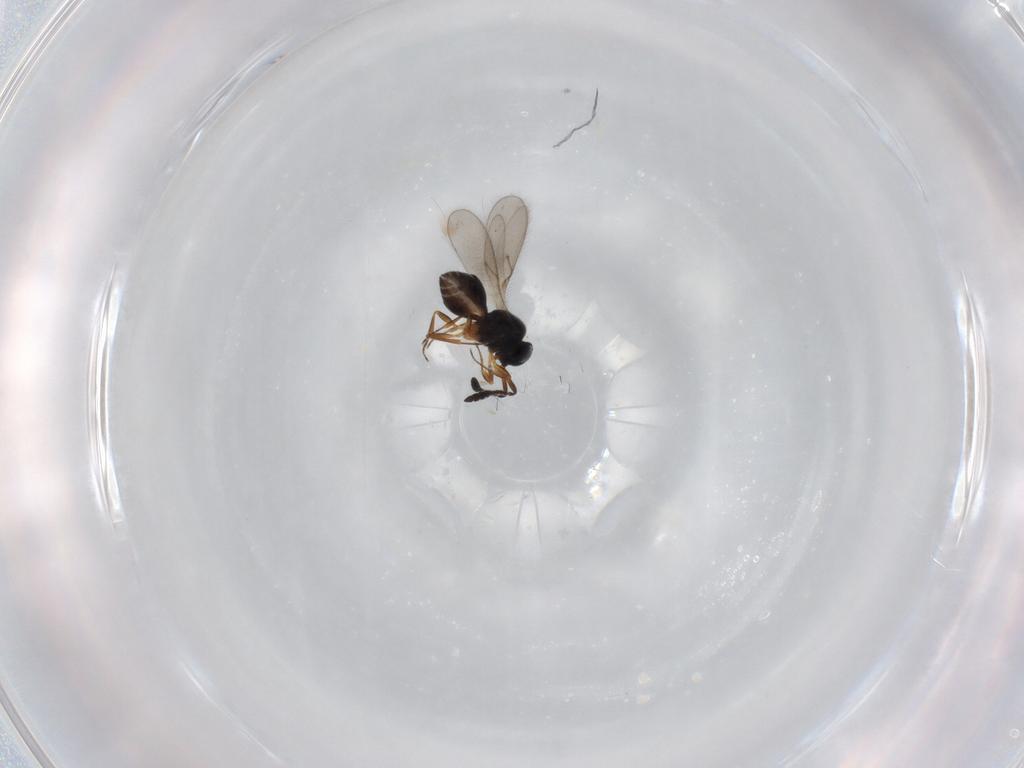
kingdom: Animalia
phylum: Arthropoda
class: Insecta
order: Hymenoptera
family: Scelionidae
